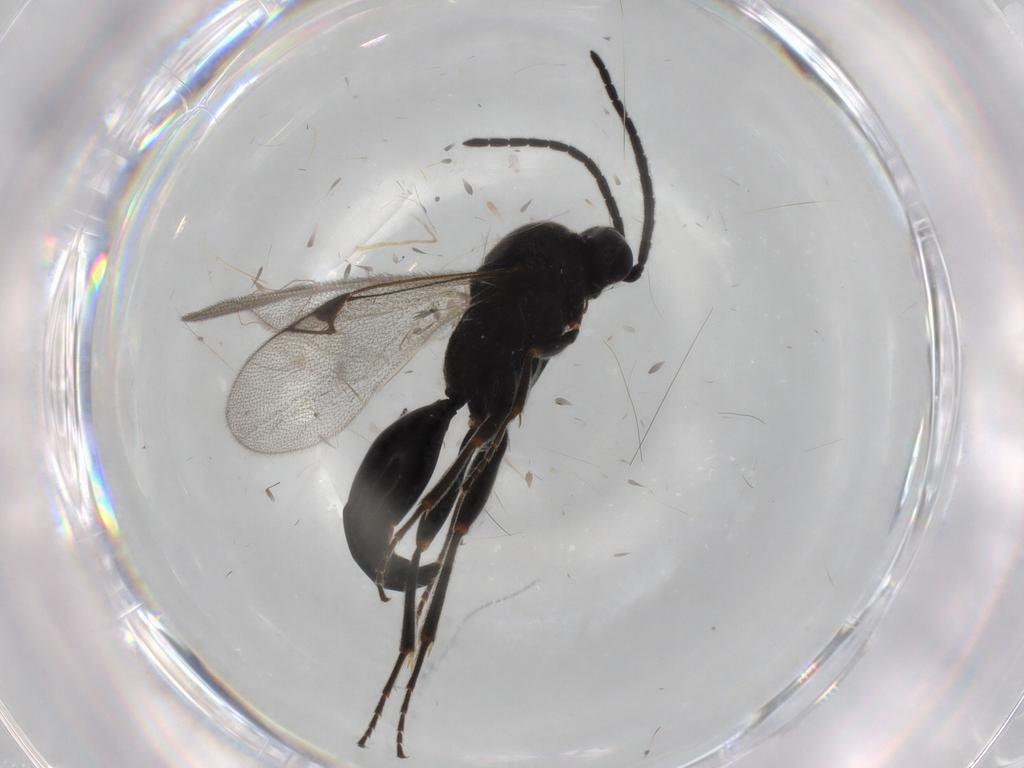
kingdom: Animalia
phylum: Arthropoda
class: Insecta
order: Hymenoptera
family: Proctotrupidae
